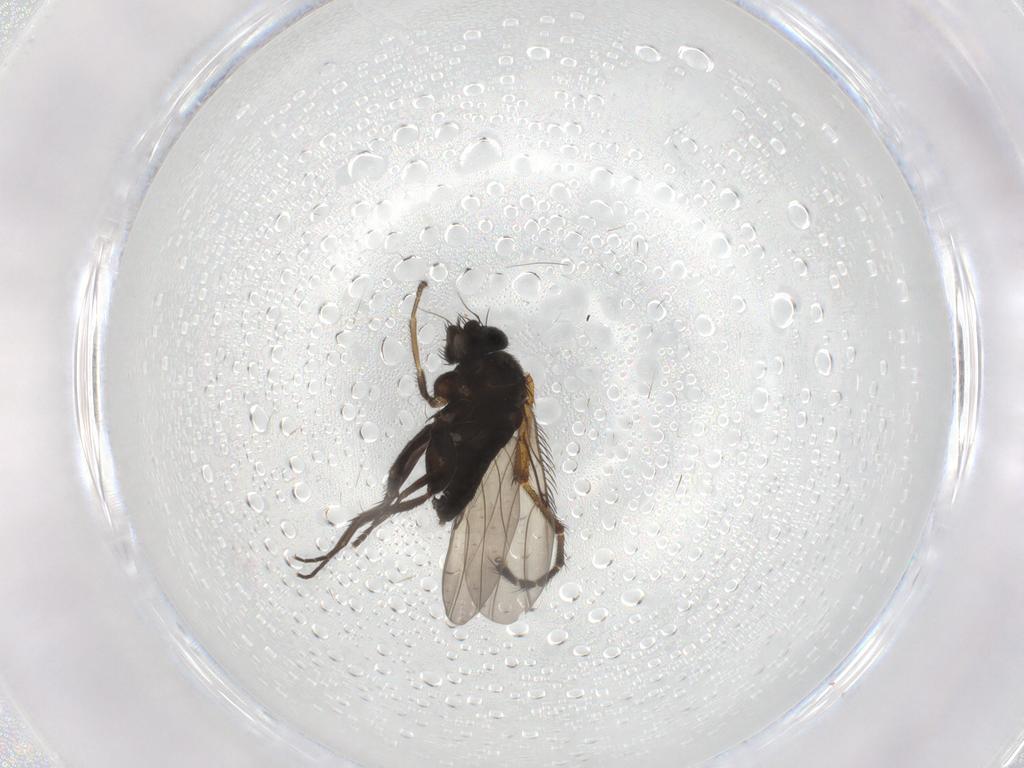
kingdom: Animalia
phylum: Arthropoda
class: Insecta
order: Diptera
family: Phoridae
